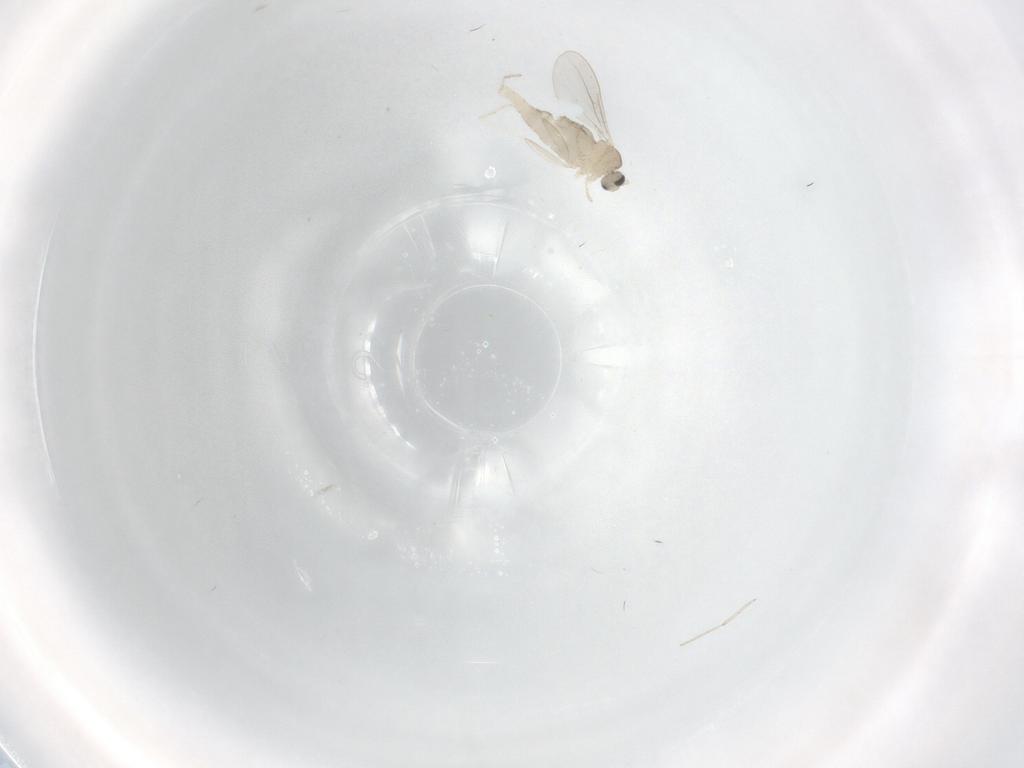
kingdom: Animalia
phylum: Arthropoda
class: Insecta
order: Diptera
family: Cecidomyiidae
